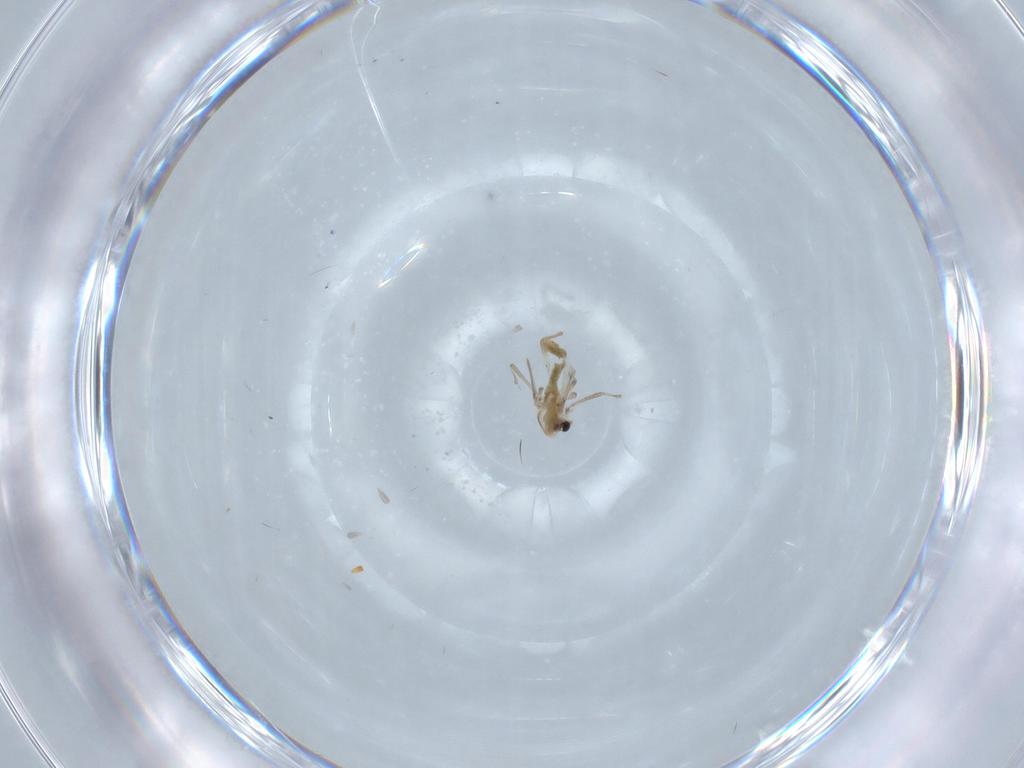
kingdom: Animalia
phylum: Arthropoda
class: Insecta
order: Diptera
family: Chironomidae
